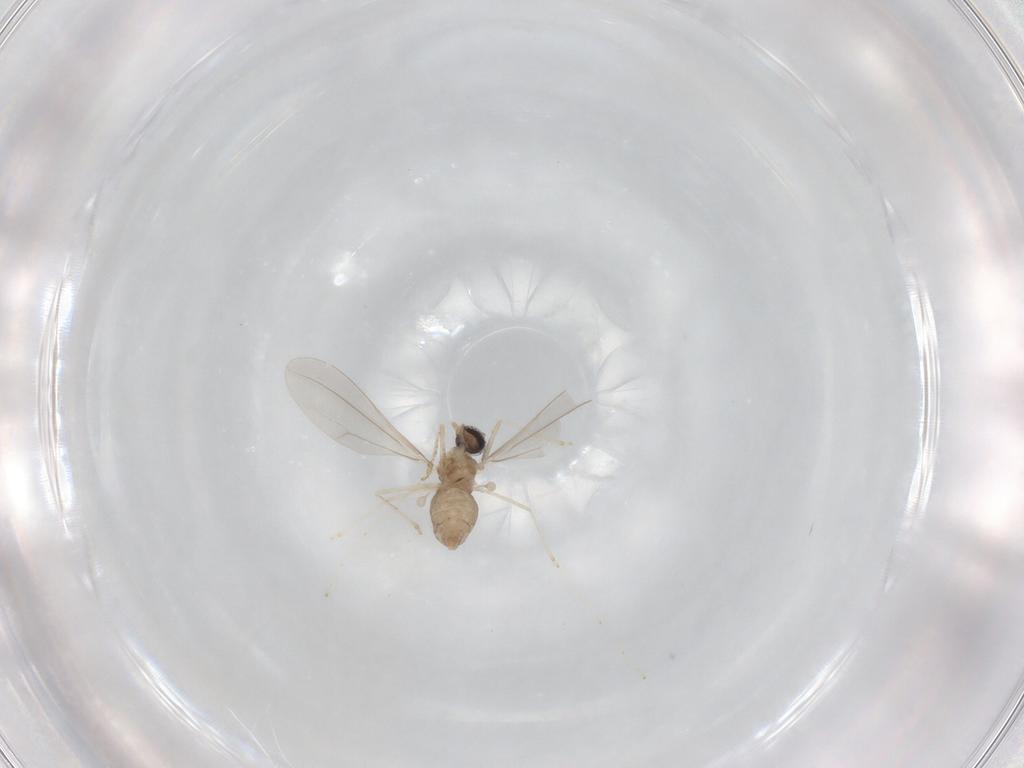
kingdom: Animalia
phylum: Arthropoda
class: Insecta
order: Diptera
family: Cecidomyiidae
